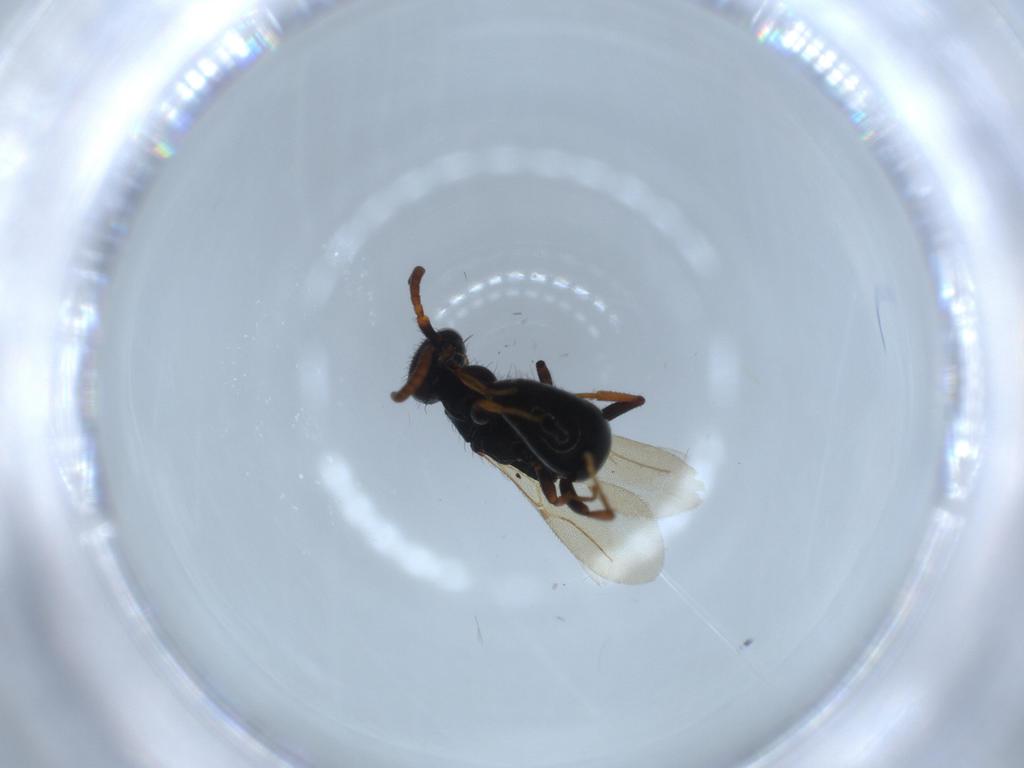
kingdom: Animalia
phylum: Arthropoda
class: Insecta
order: Hymenoptera
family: Bethylidae
